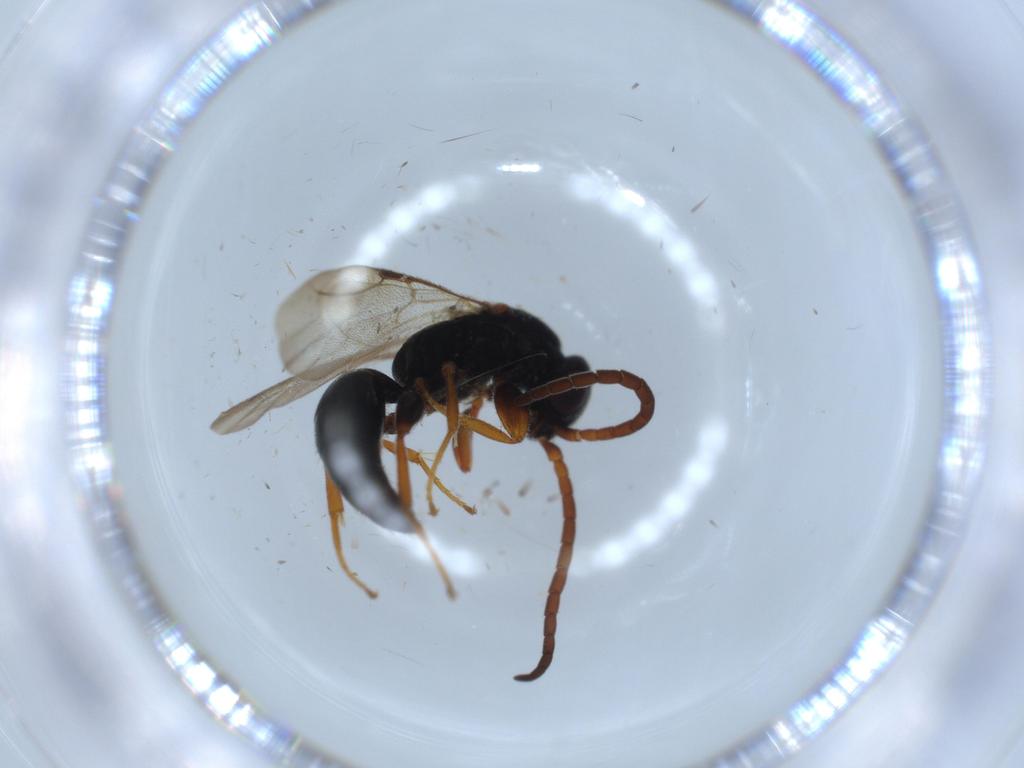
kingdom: Animalia
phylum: Arthropoda
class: Insecta
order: Hymenoptera
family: Bethylidae
